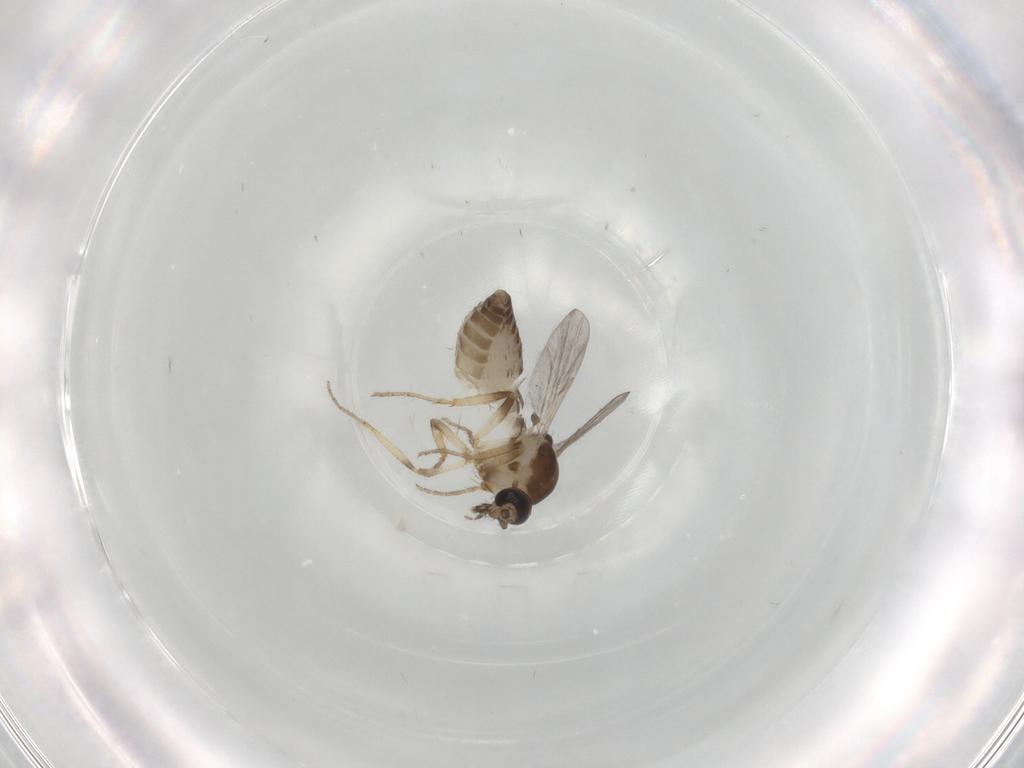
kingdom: Animalia
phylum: Arthropoda
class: Insecta
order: Diptera
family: Ceratopogonidae
